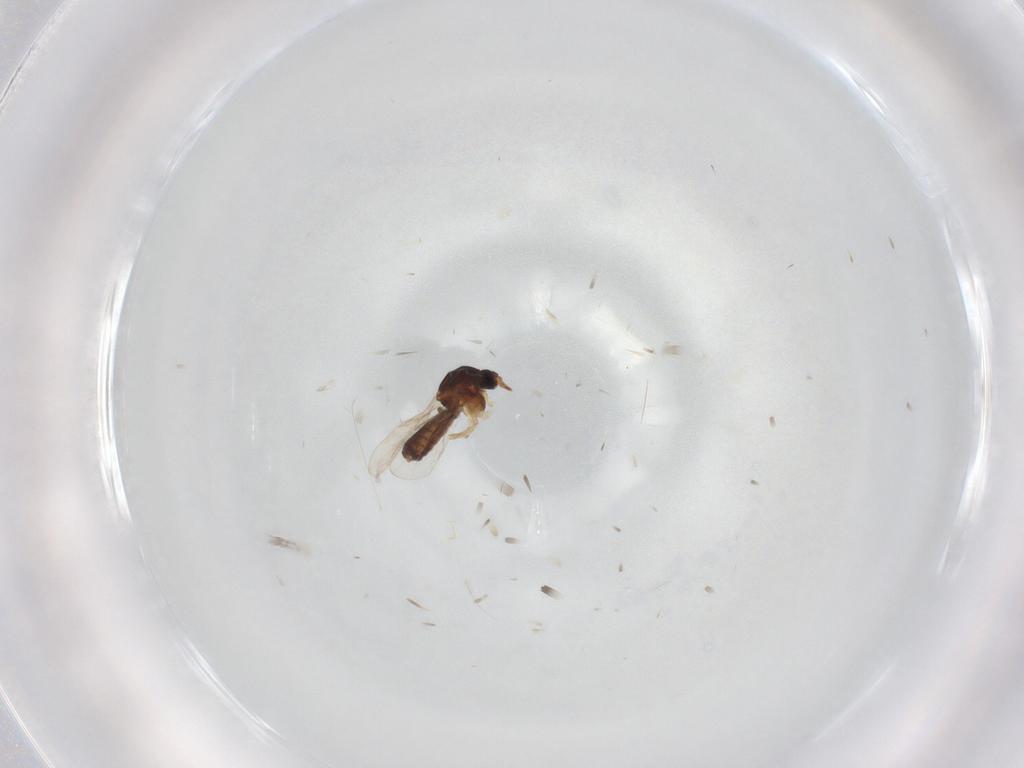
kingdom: Animalia
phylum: Arthropoda
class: Insecta
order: Diptera
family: Ceratopogonidae
